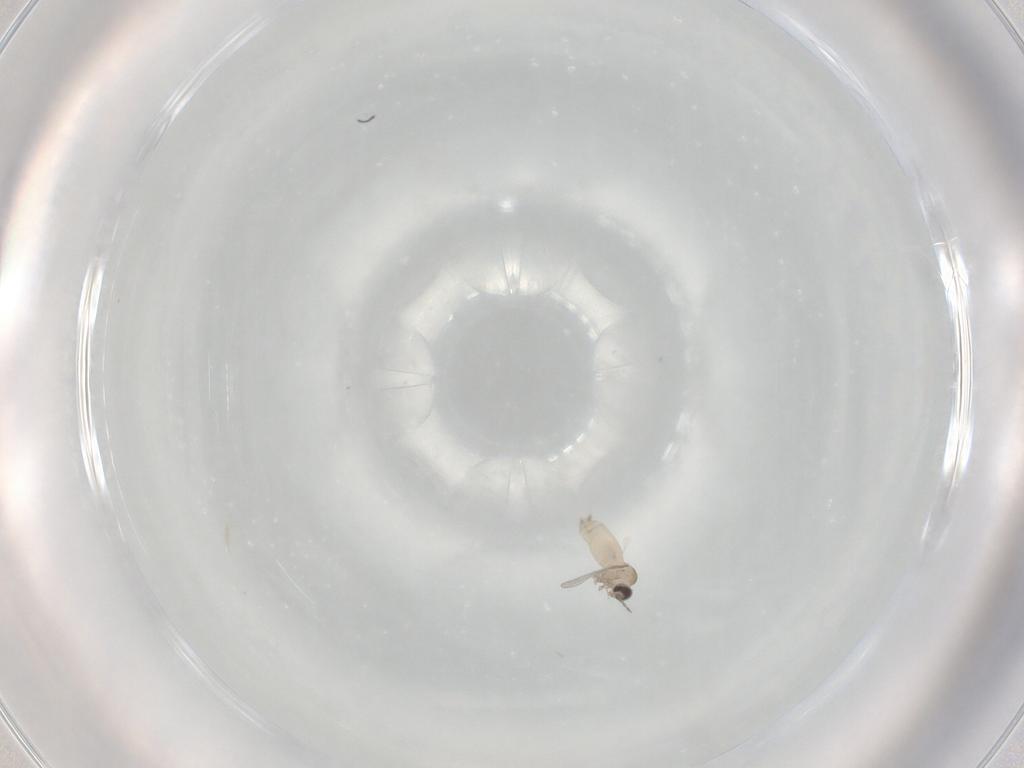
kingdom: Animalia
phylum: Arthropoda
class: Insecta
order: Diptera
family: Cecidomyiidae
